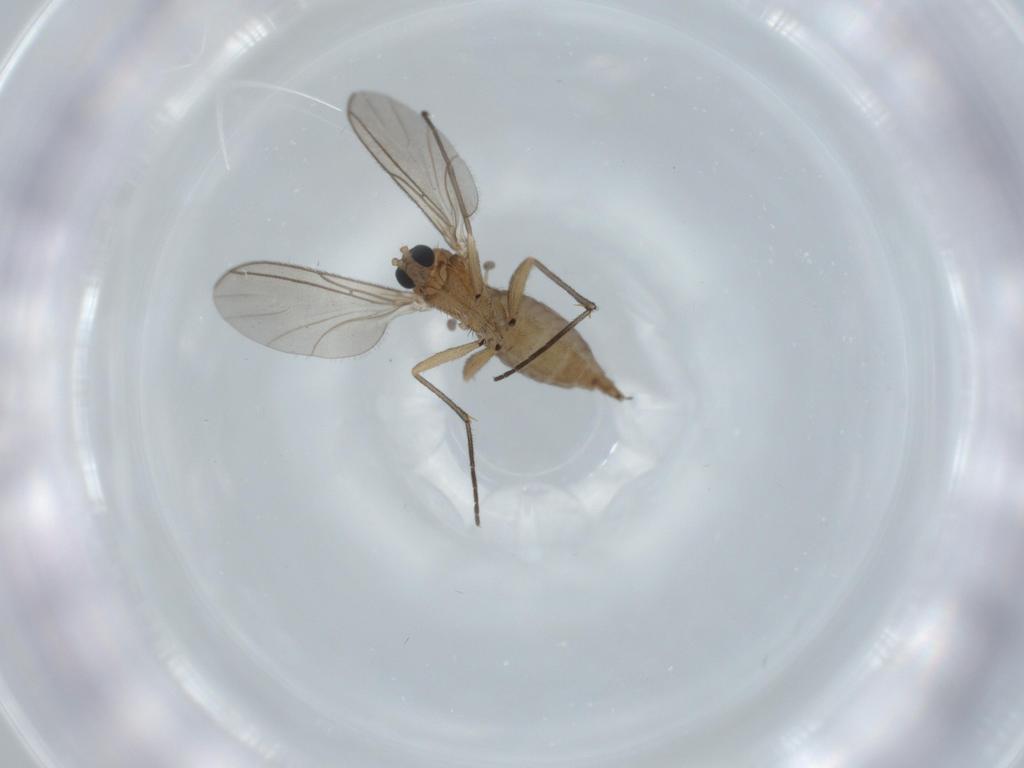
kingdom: Animalia
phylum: Arthropoda
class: Insecta
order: Diptera
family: Sciaridae
